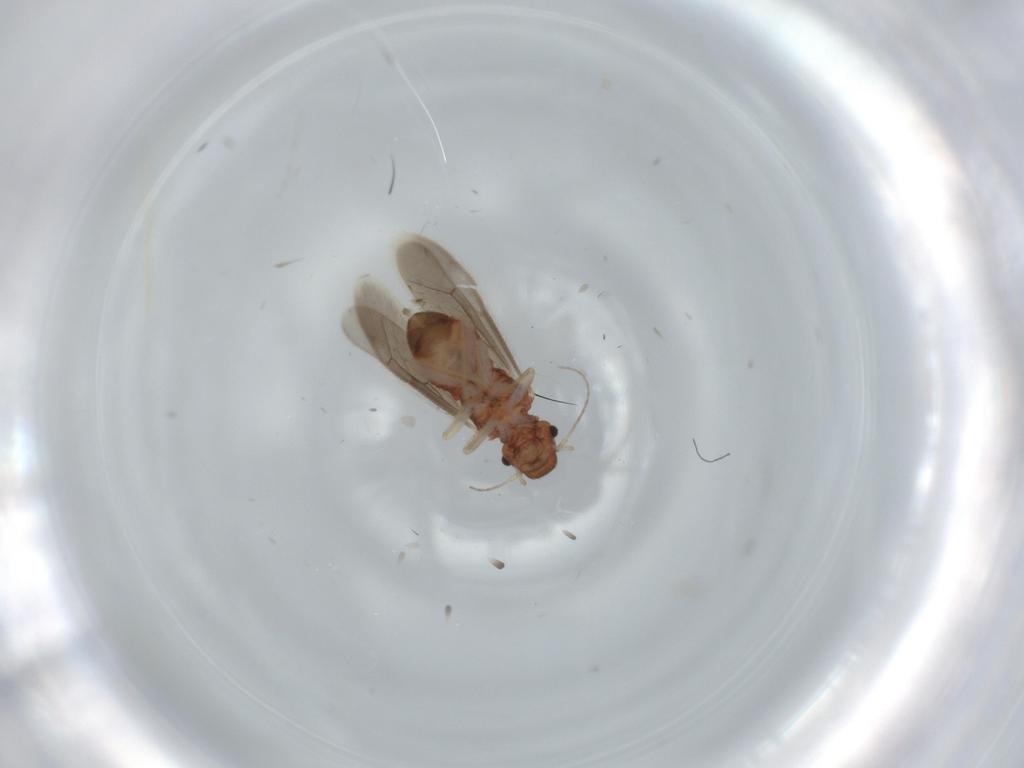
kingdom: Animalia
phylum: Arthropoda
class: Insecta
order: Psocodea
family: Archipsocidae
